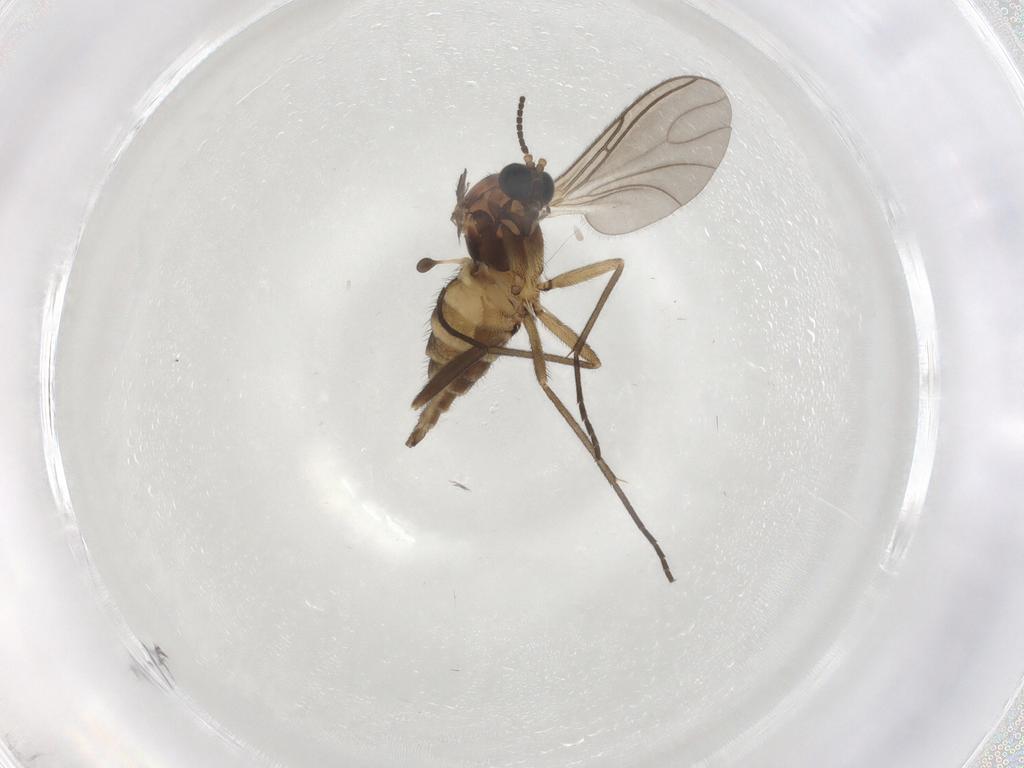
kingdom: Animalia
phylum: Arthropoda
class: Insecta
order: Diptera
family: Sciaridae
